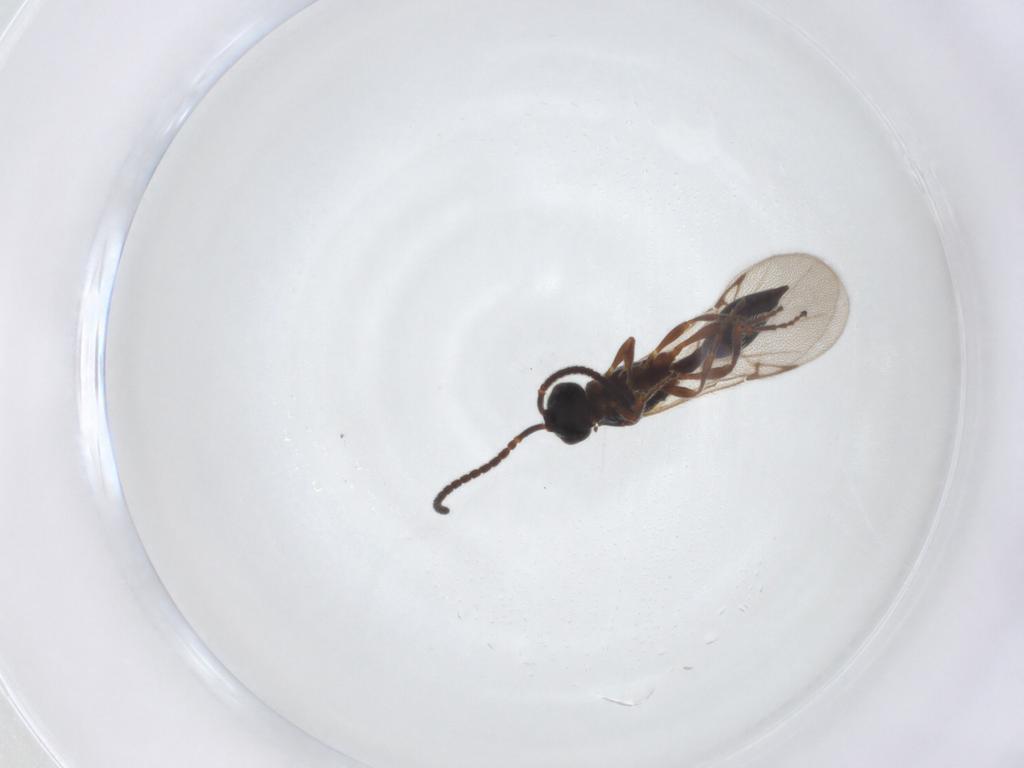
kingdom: Animalia
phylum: Arthropoda
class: Insecta
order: Hymenoptera
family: Diapriidae
